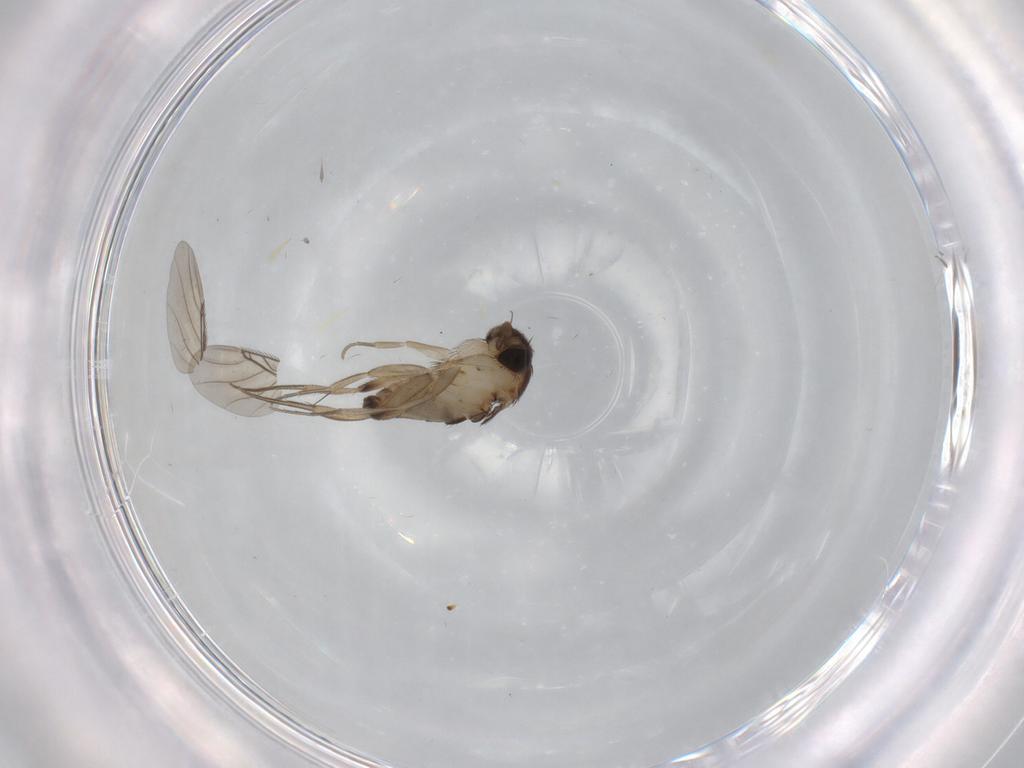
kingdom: Animalia
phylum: Arthropoda
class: Insecta
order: Diptera
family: Phoridae
